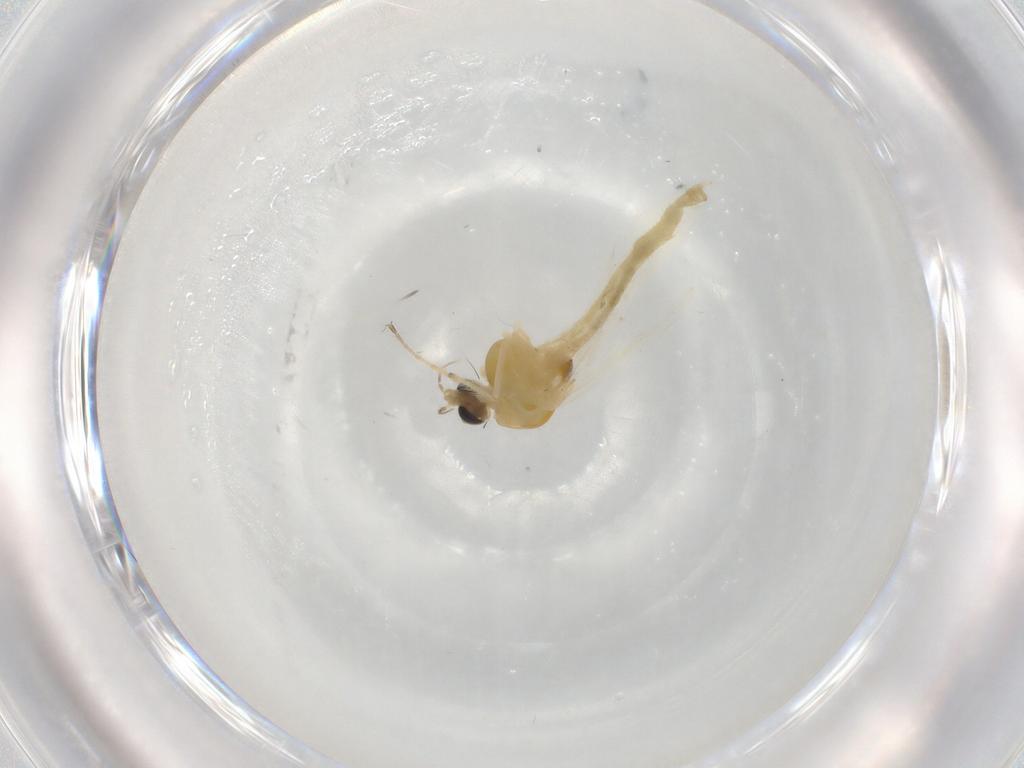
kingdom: Animalia
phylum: Arthropoda
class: Insecta
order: Diptera
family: Chironomidae
